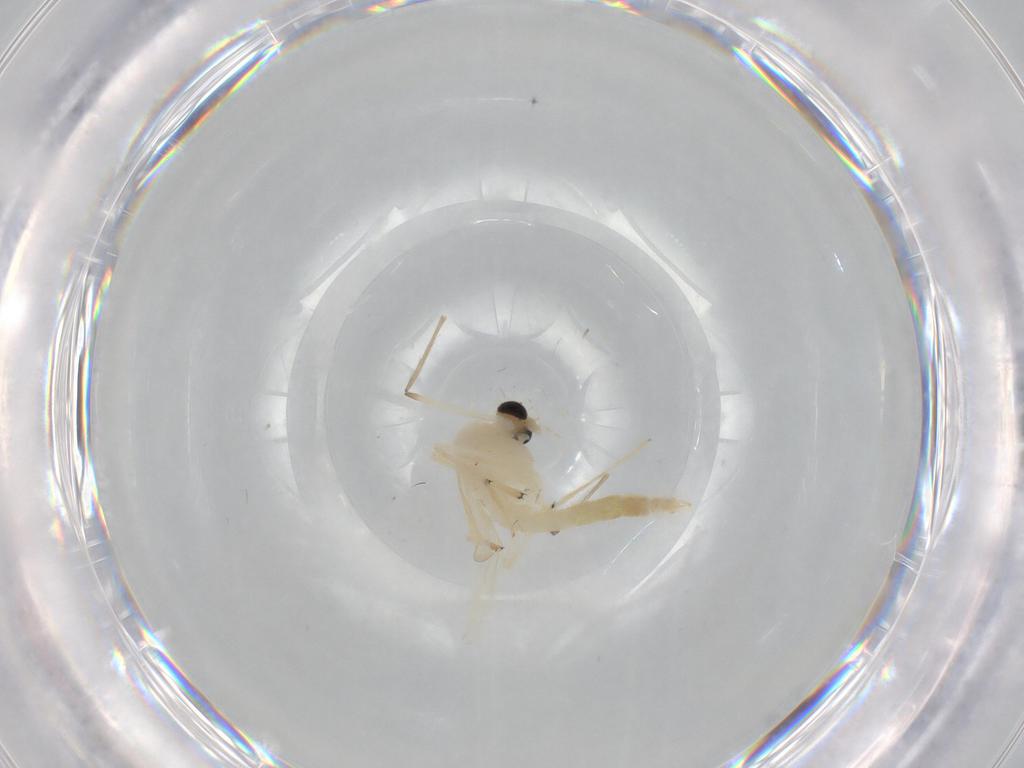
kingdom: Animalia
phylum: Arthropoda
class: Insecta
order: Diptera
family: Chironomidae
